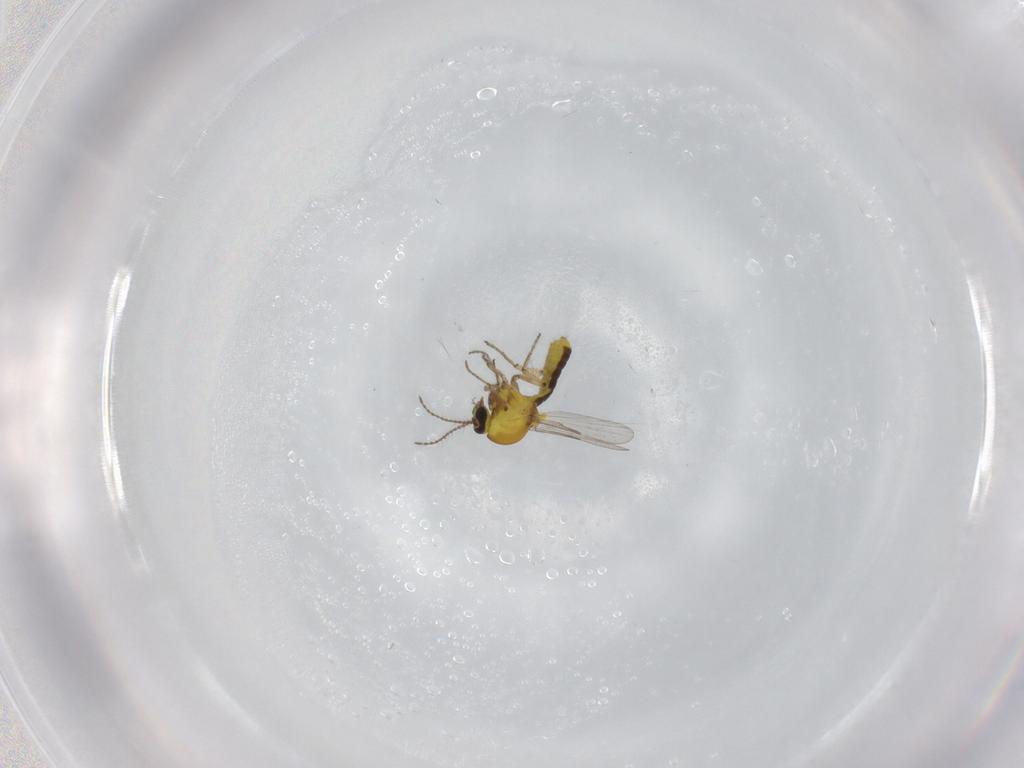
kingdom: Animalia
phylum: Arthropoda
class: Insecta
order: Diptera
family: Ceratopogonidae
